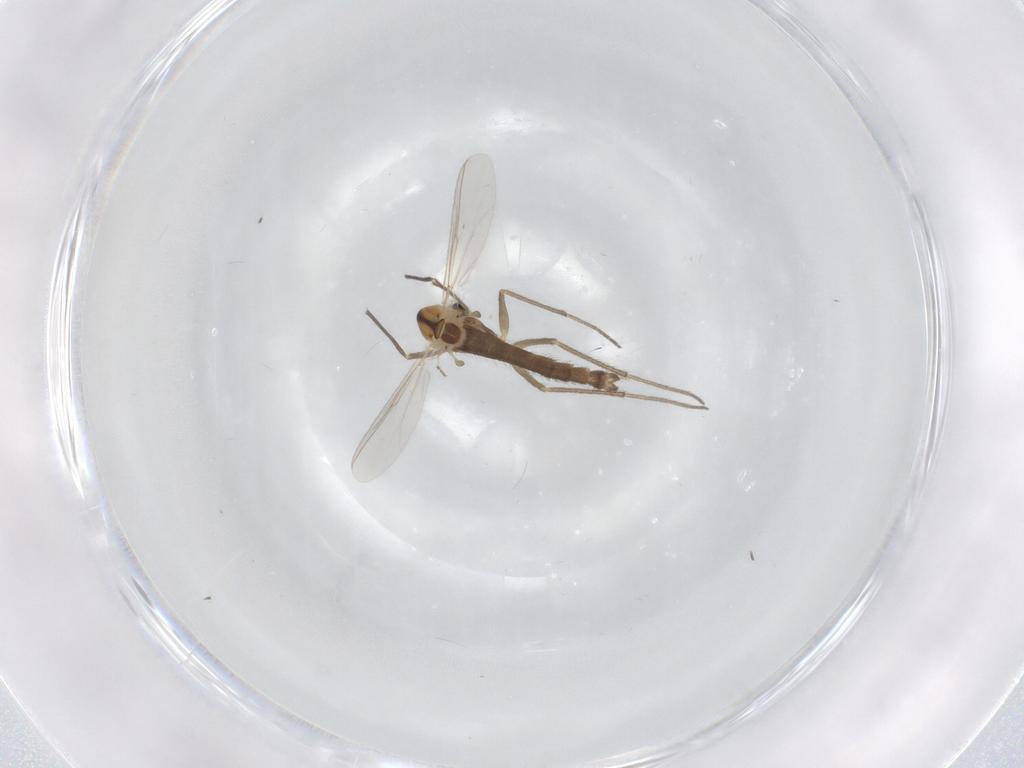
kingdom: Animalia
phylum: Arthropoda
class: Insecta
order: Diptera
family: Chironomidae
